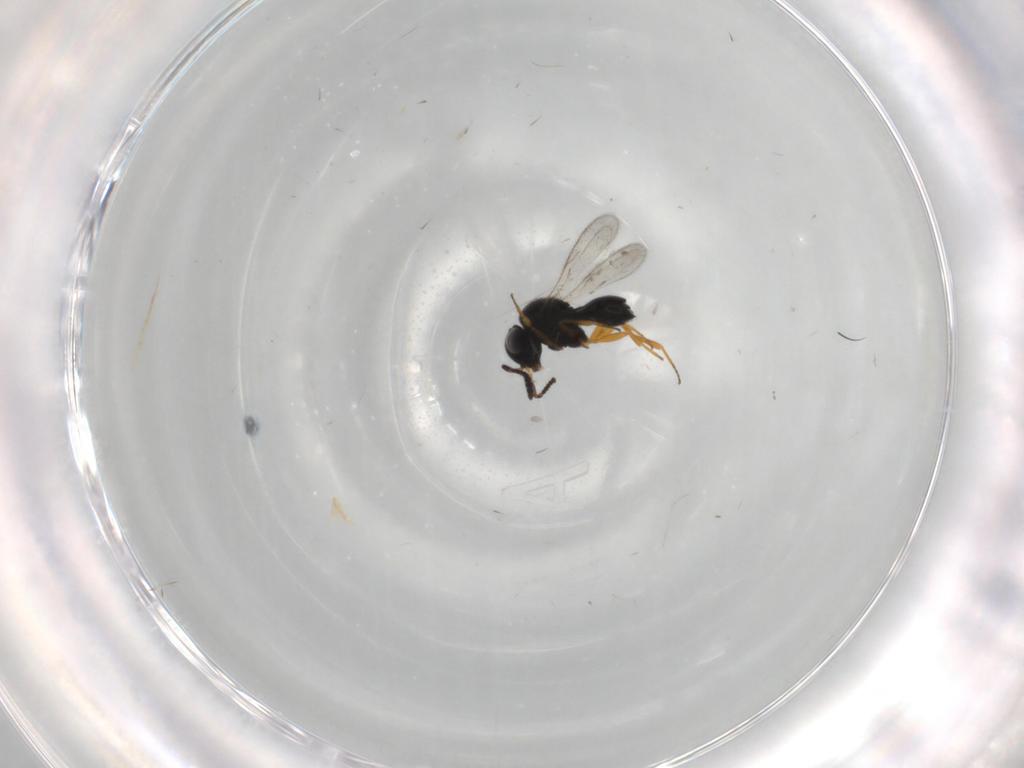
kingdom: Animalia
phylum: Arthropoda
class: Insecta
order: Hymenoptera
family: Scelionidae
